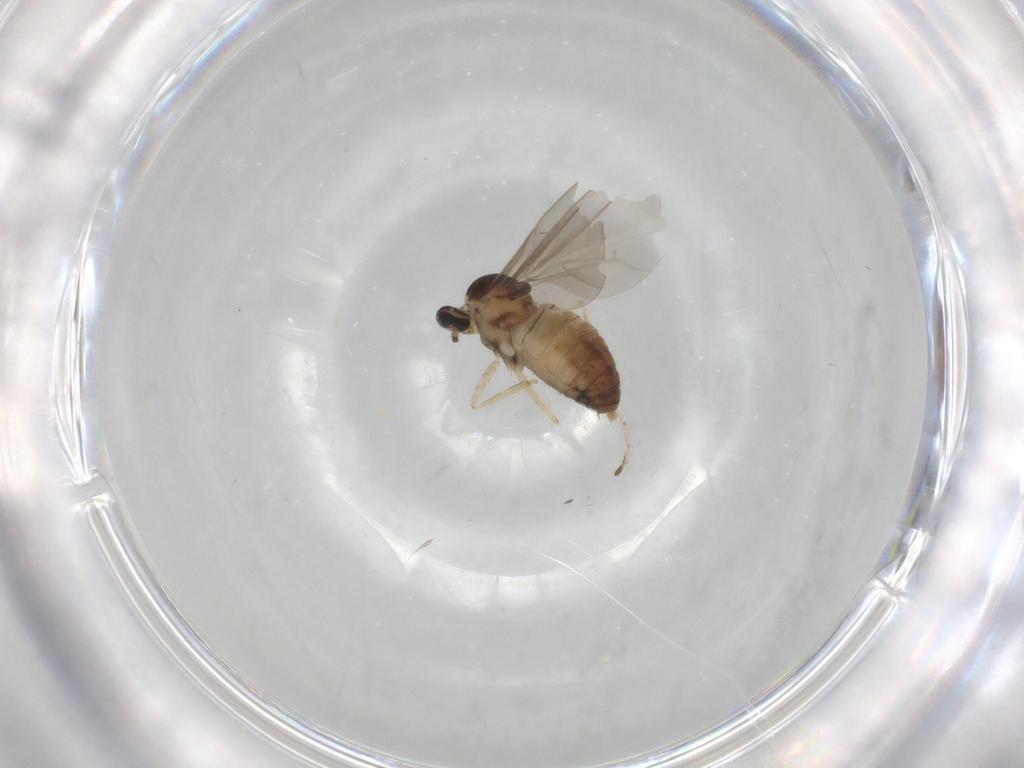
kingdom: Animalia
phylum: Arthropoda
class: Insecta
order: Diptera
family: Cecidomyiidae
